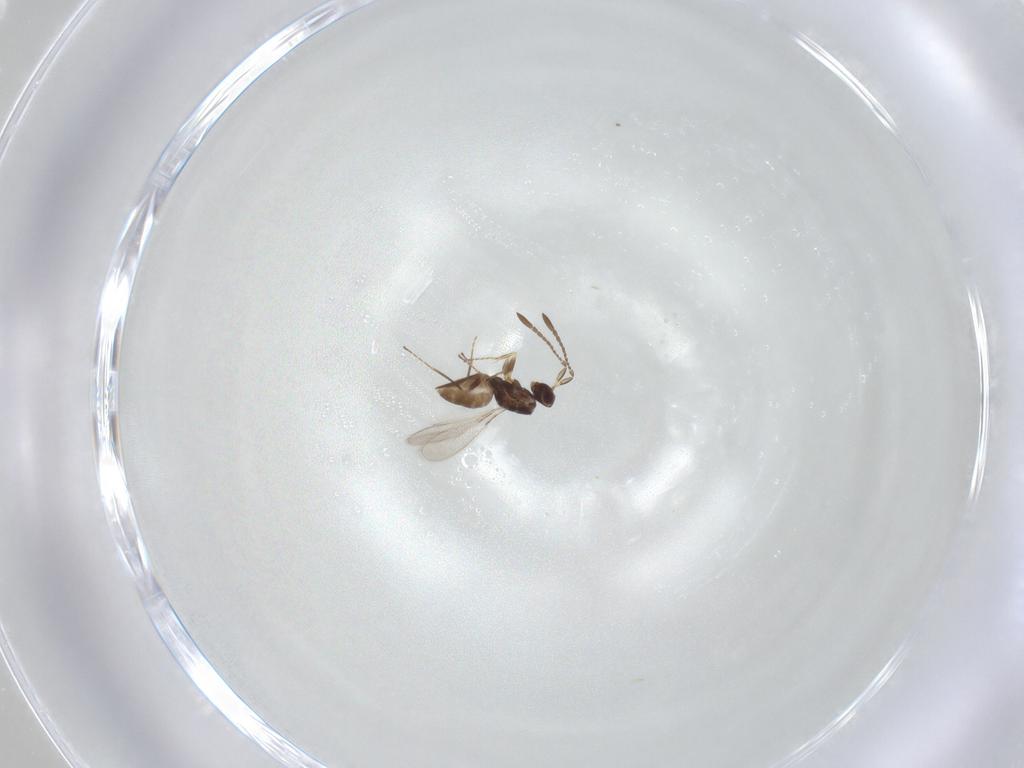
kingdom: Animalia
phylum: Arthropoda
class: Insecta
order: Hymenoptera
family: Mymaridae
